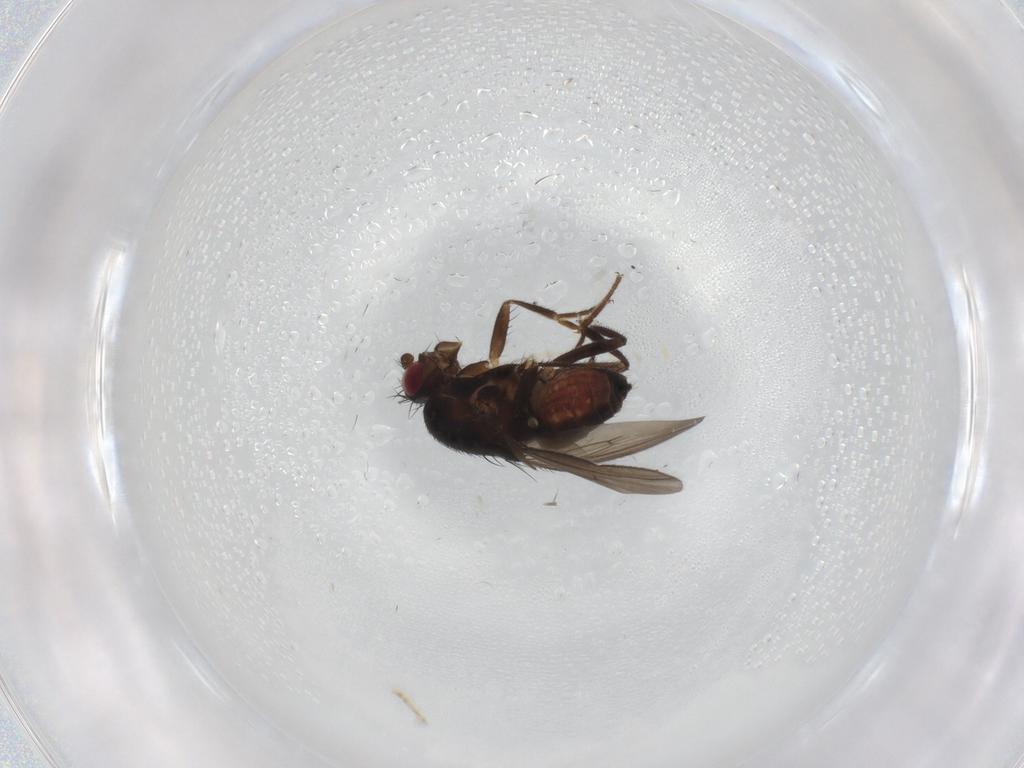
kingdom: Animalia
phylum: Arthropoda
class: Insecta
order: Diptera
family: Cecidomyiidae
